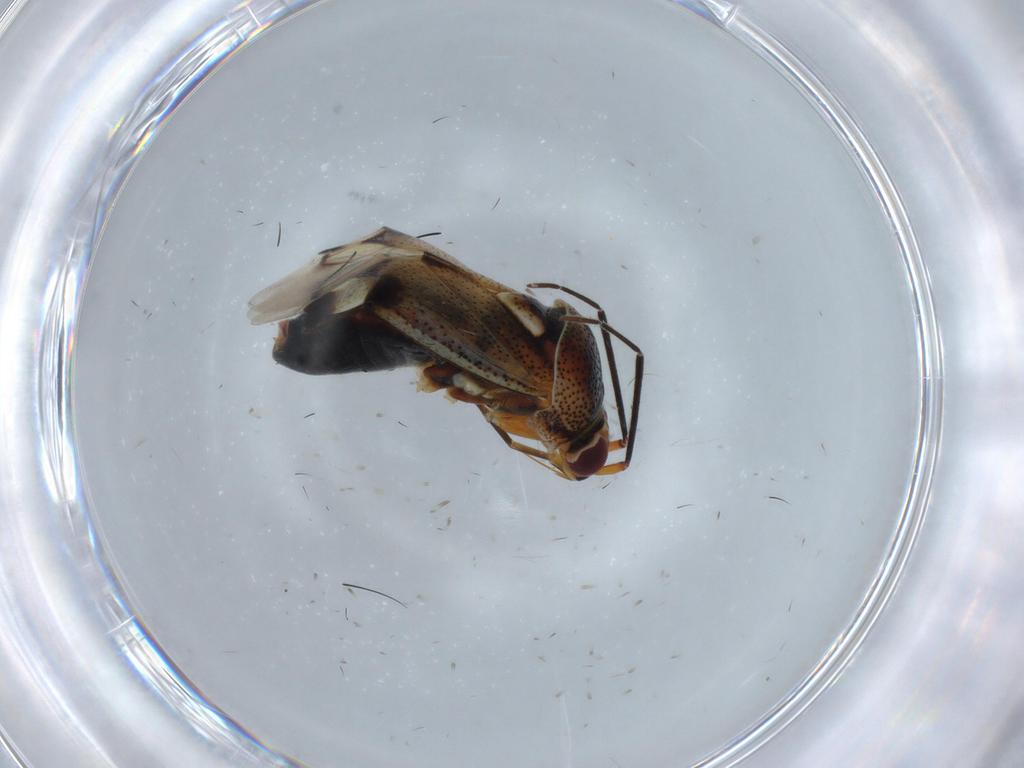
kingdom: Animalia
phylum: Arthropoda
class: Insecta
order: Hemiptera
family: Miridae
